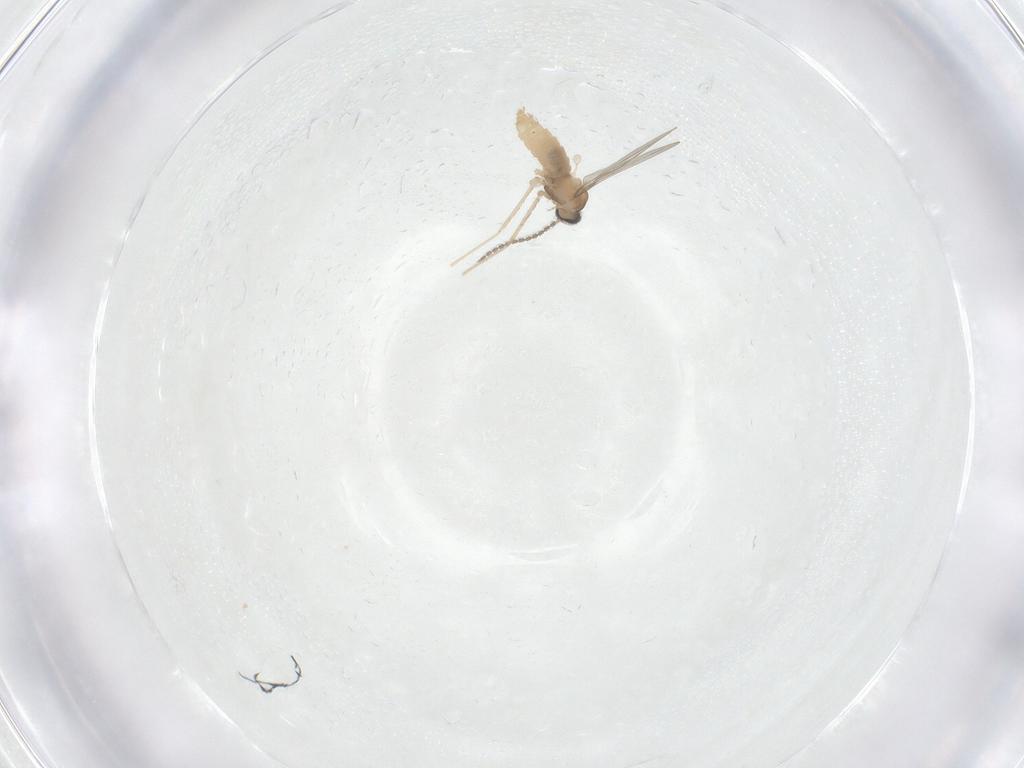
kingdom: Animalia
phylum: Arthropoda
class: Insecta
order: Diptera
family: Cecidomyiidae
